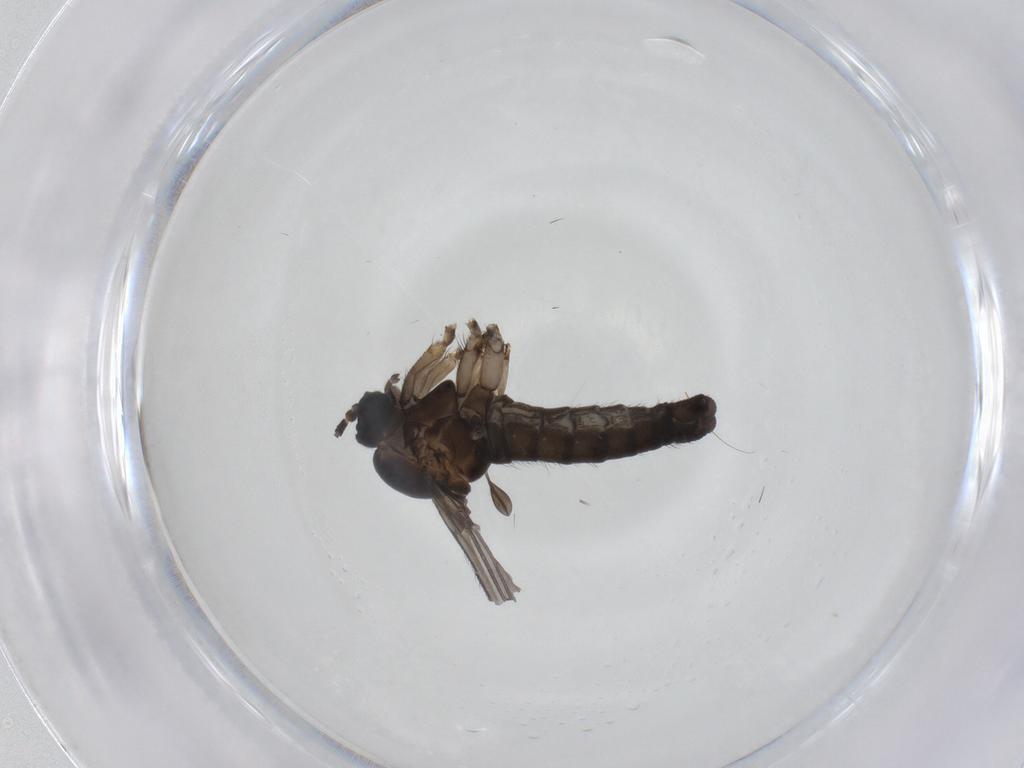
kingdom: Animalia
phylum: Arthropoda
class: Insecta
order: Diptera
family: Sciaridae
